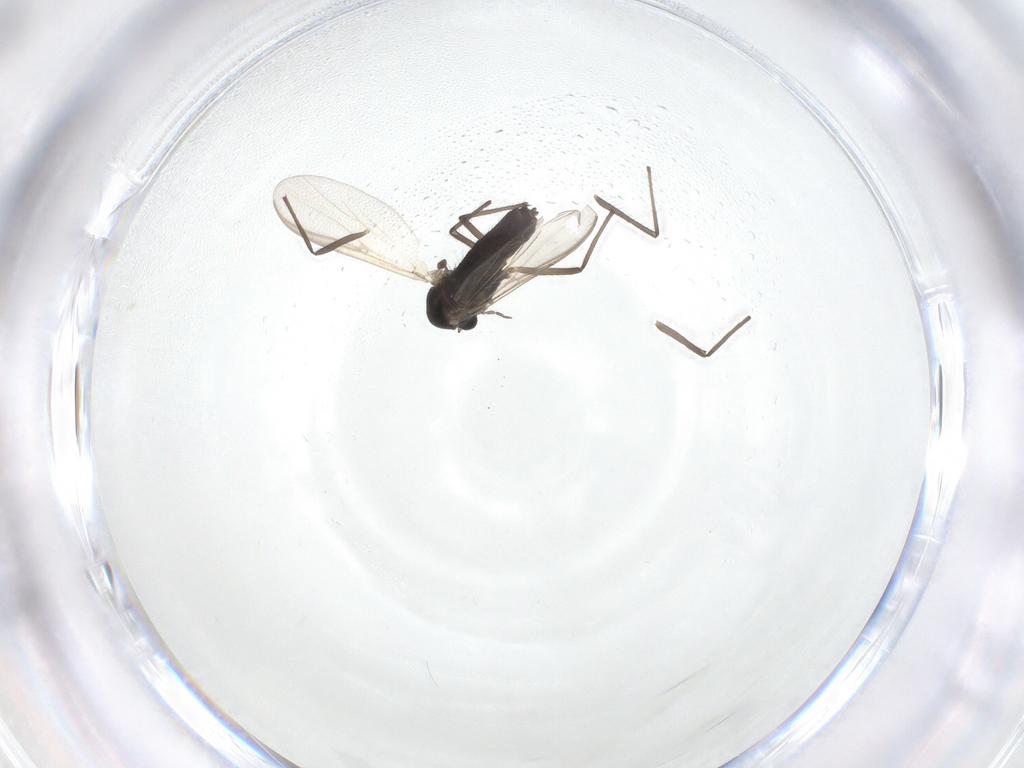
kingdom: Animalia
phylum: Arthropoda
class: Insecta
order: Diptera
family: Chironomidae
